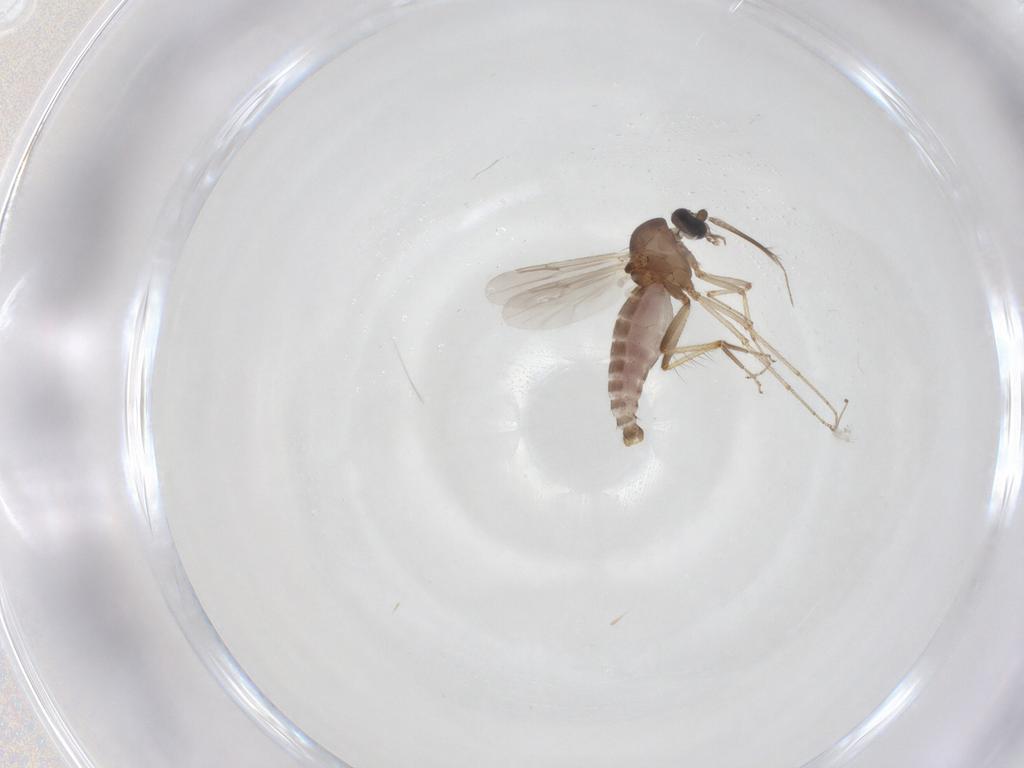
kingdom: Animalia
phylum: Arthropoda
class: Insecta
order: Diptera
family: Ceratopogonidae
